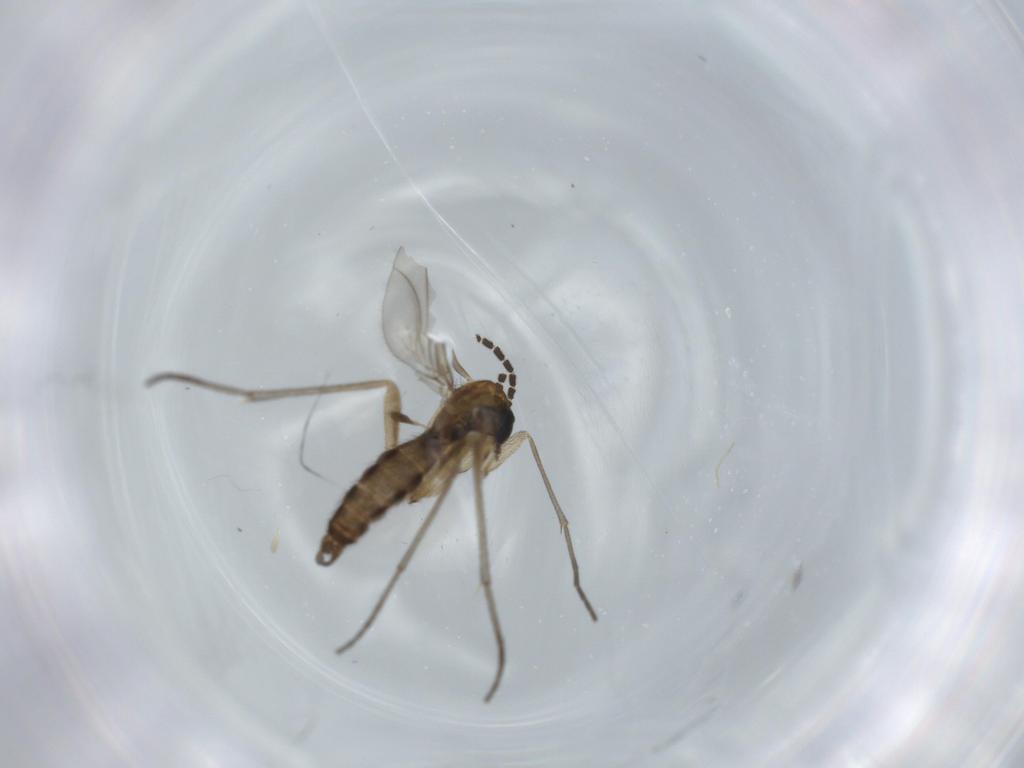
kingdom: Animalia
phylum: Arthropoda
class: Insecta
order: Diptera
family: Sciaridae
